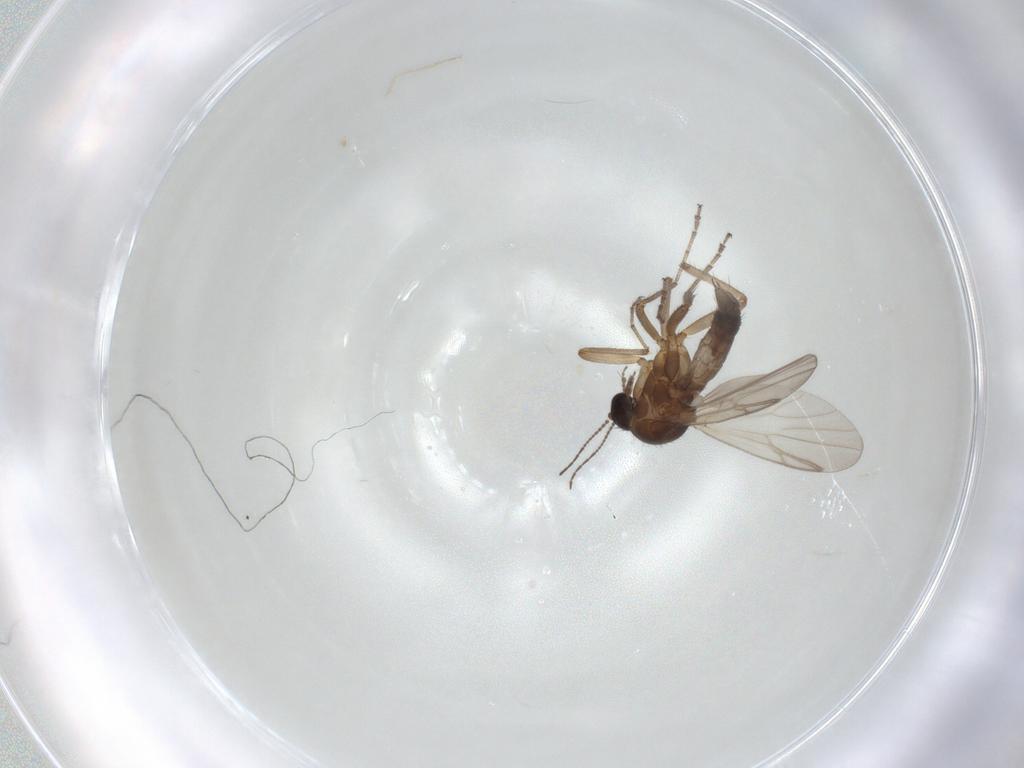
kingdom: Animalia
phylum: Arthropoda
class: Insecta
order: Diptera
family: Ceratopogonidae
